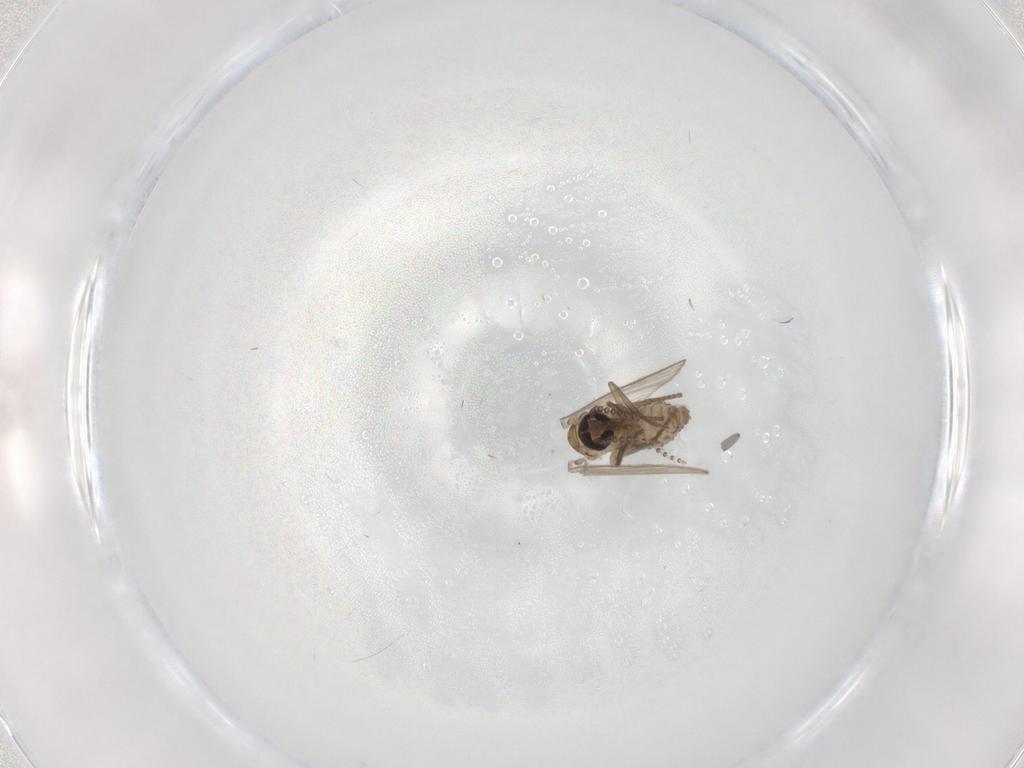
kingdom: Animalia
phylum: Arthropoda
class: Insecta
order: Diptera
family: Psychodidae
